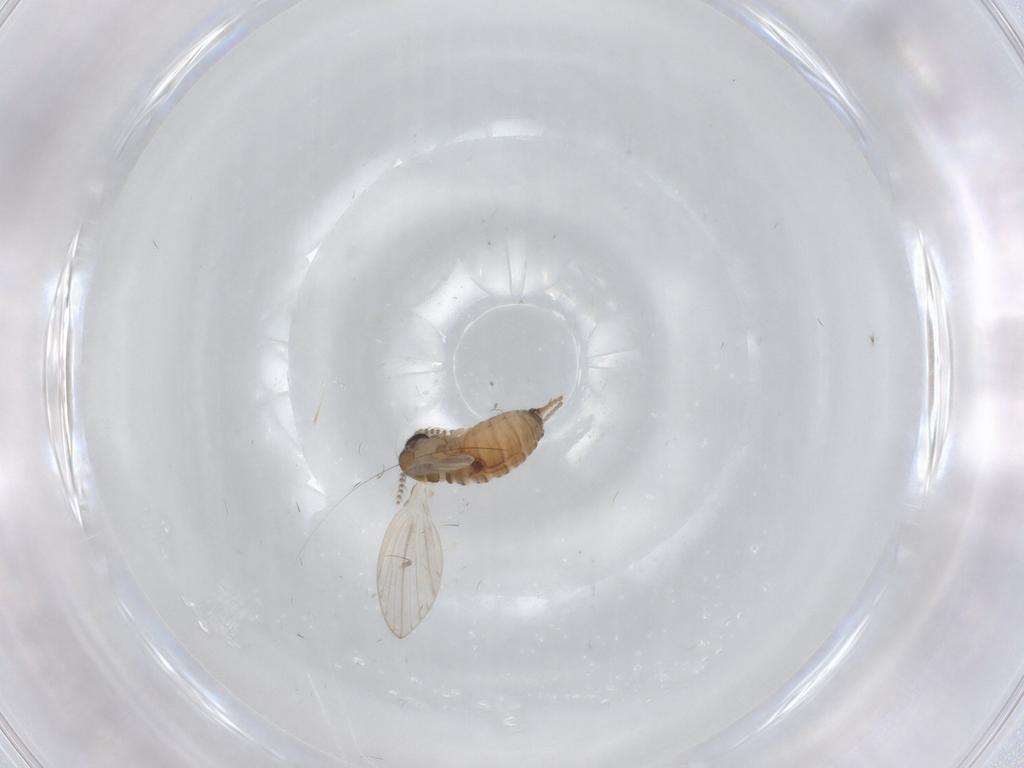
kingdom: Animalia
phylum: Arthropoda
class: Insecta
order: Diptera
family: Psychodidae
